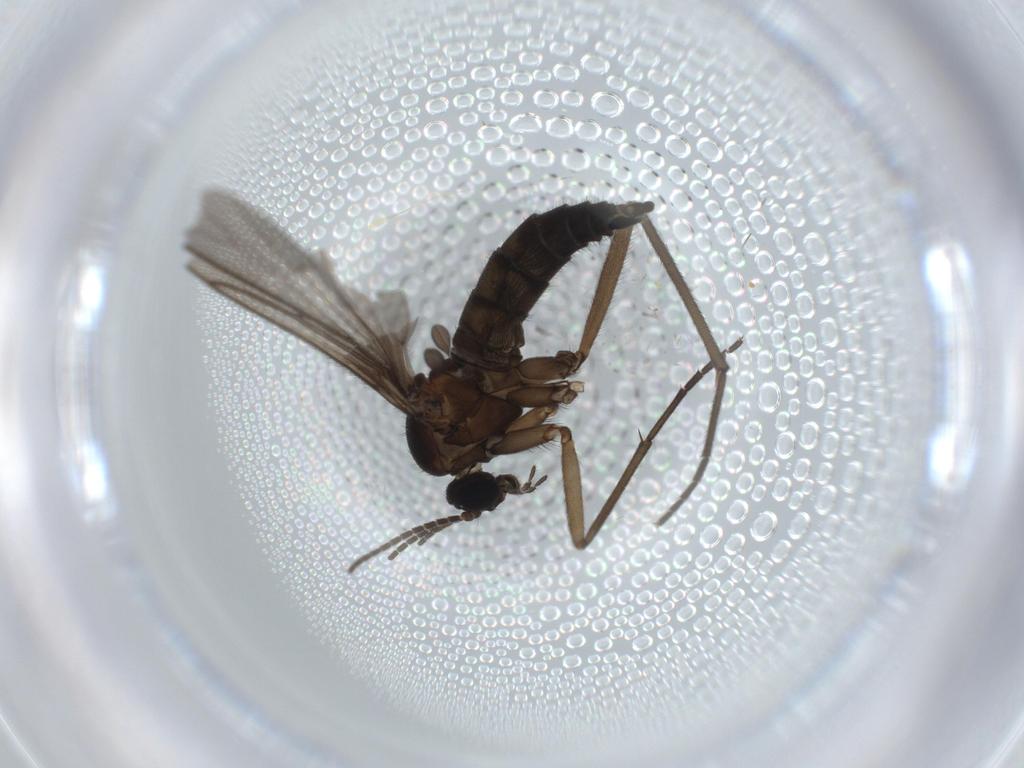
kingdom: Animalia
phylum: Arthropoda
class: Insecta
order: Diptera
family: Sciaridae
